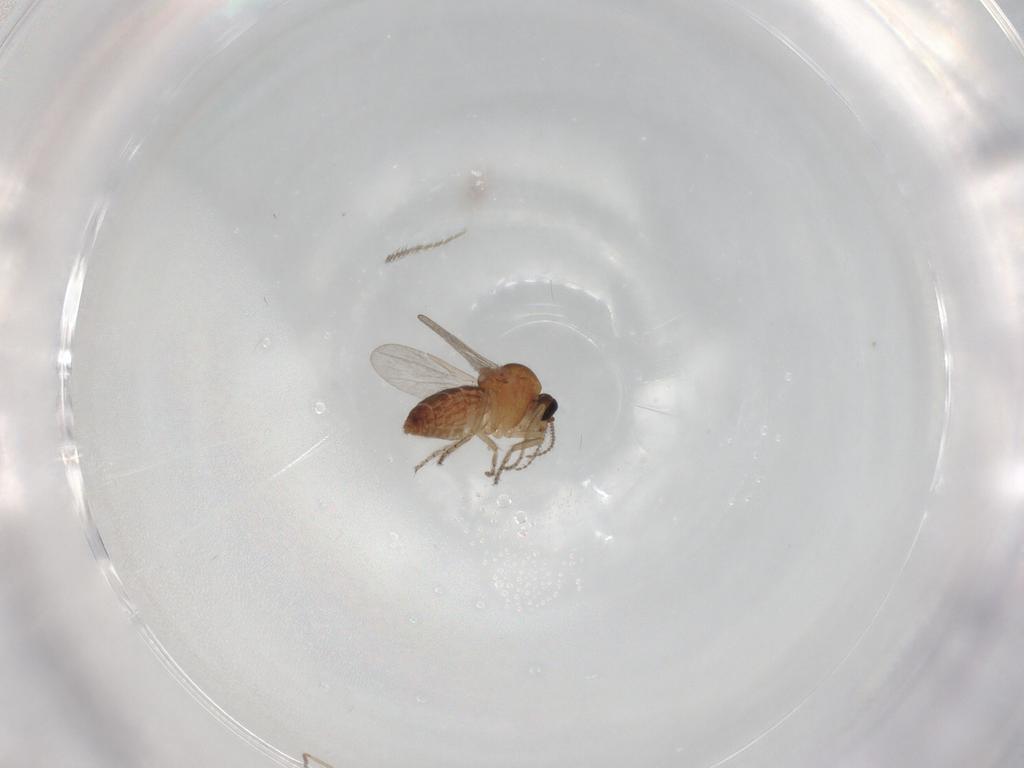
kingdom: Animalia
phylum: Arthropoda
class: Insecta
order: Diptera
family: Ceratopogonidae
